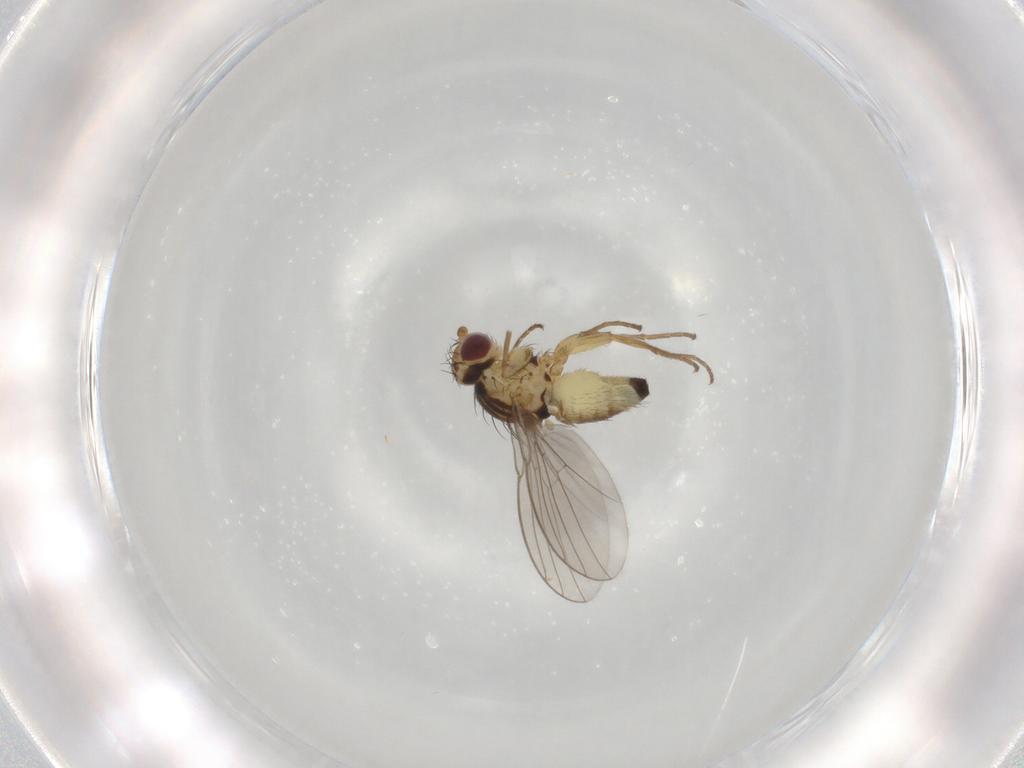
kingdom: Animalia
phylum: Arthropoda
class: Insecta
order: Diptera
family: Agromyzidae
